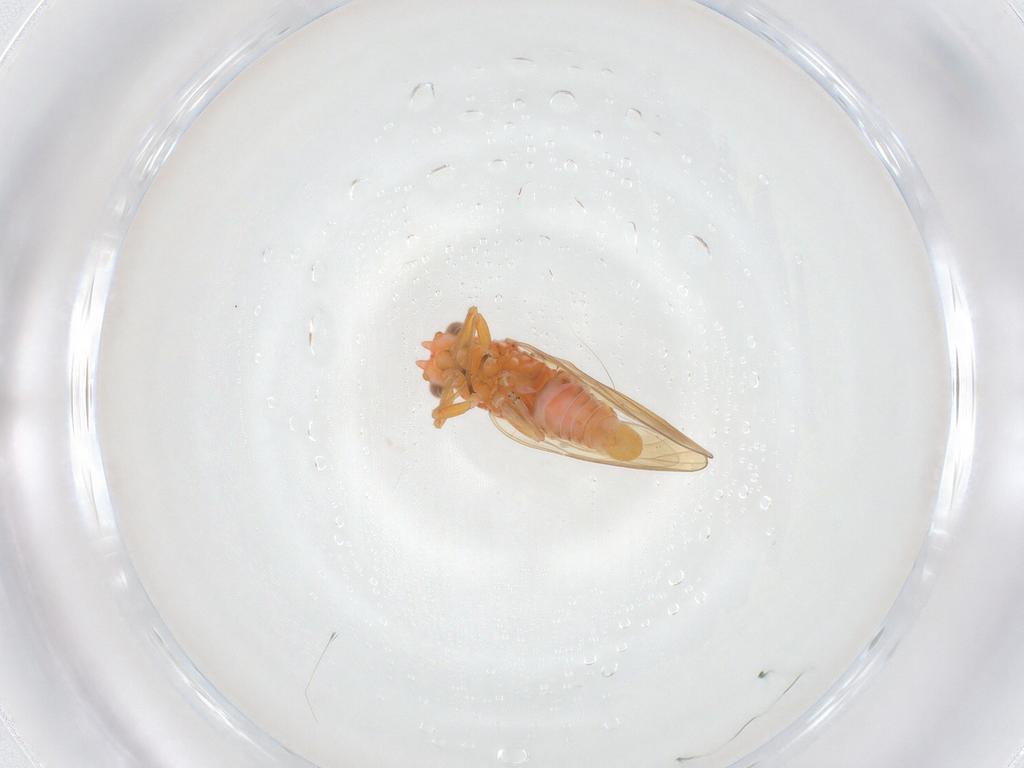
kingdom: Animalia
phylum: Arthropoda
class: Insecta
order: Hemiptera
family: Psyllidae
